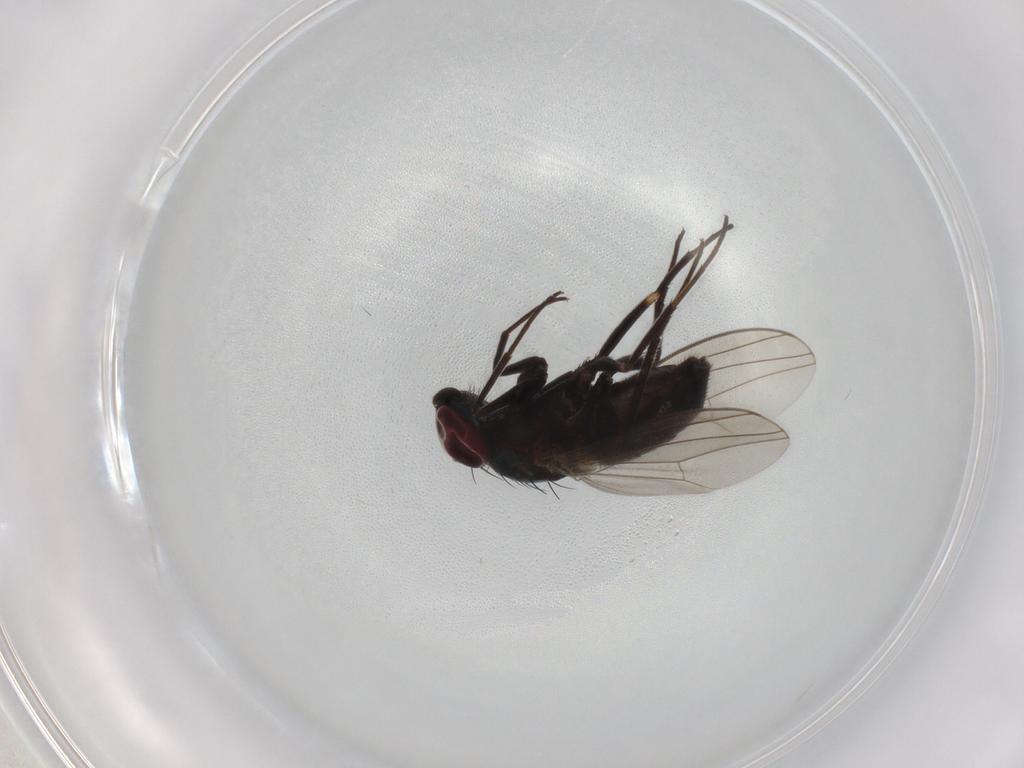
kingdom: Animalia
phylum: Arthropoda
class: Insecta
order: Diptera
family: Dolichopodidae
